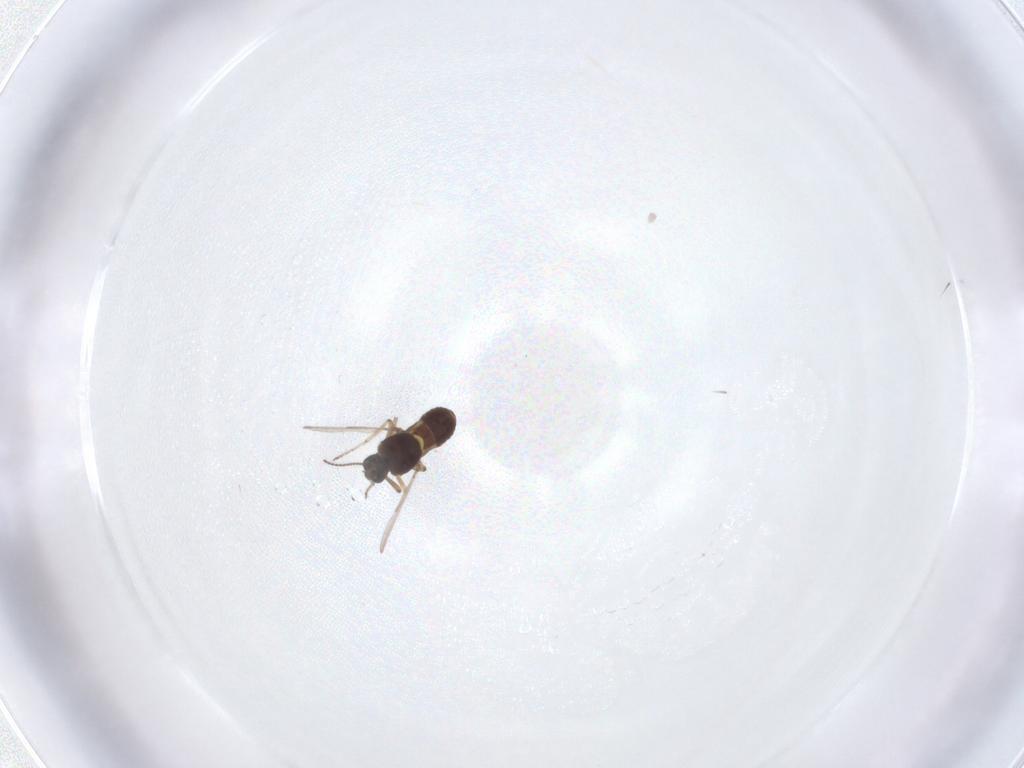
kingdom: Animalia
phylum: Arthropoda
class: Insecta
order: Diptera
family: Ceratopogonidae
